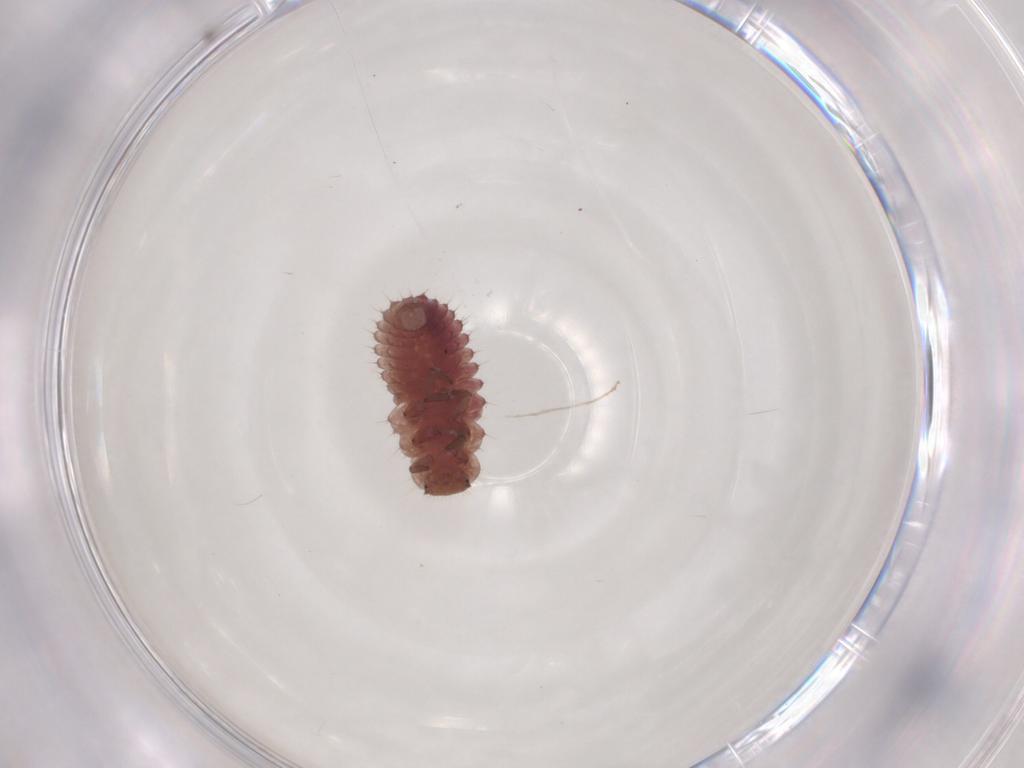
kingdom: Animalia
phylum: Arthropoda
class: Insecta
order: Coleoptera
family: Coccinellidae
